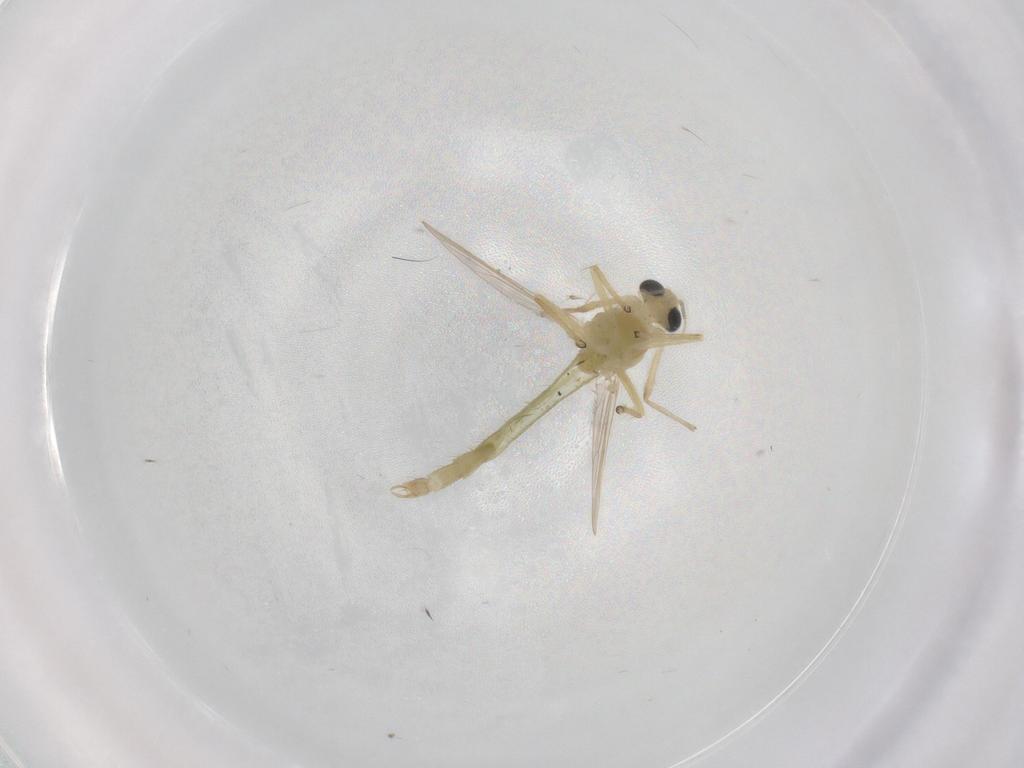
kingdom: Animalia
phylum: Arthropoda
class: Insecta
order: Diptera
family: Chironomidae
